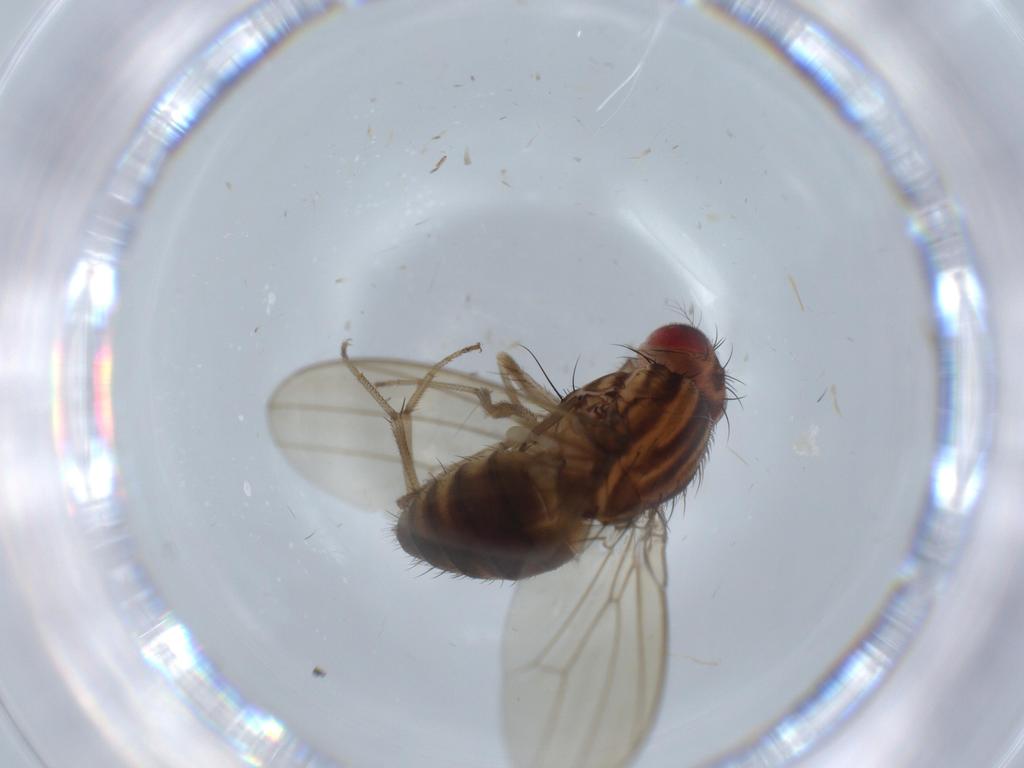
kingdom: Animalia
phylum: Arthropoda
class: Insecta
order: Diptera
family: Drosophilidae
